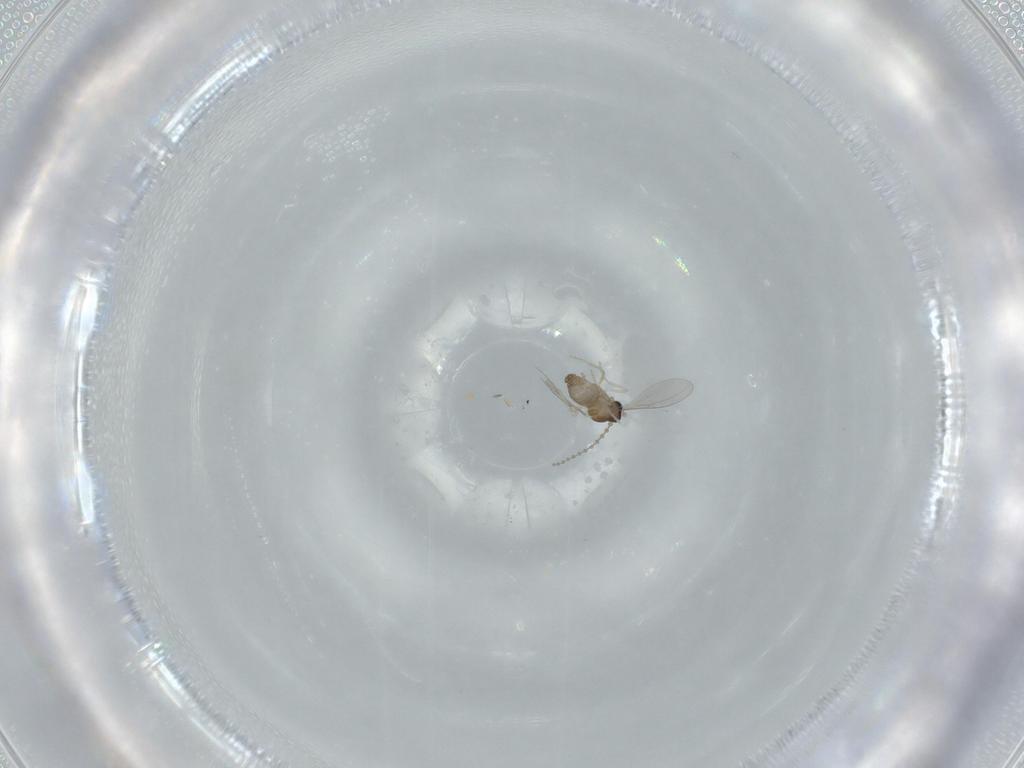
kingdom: Animalia
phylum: Arthropoda
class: Insecta
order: Diptera
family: Cecidomyiidae
